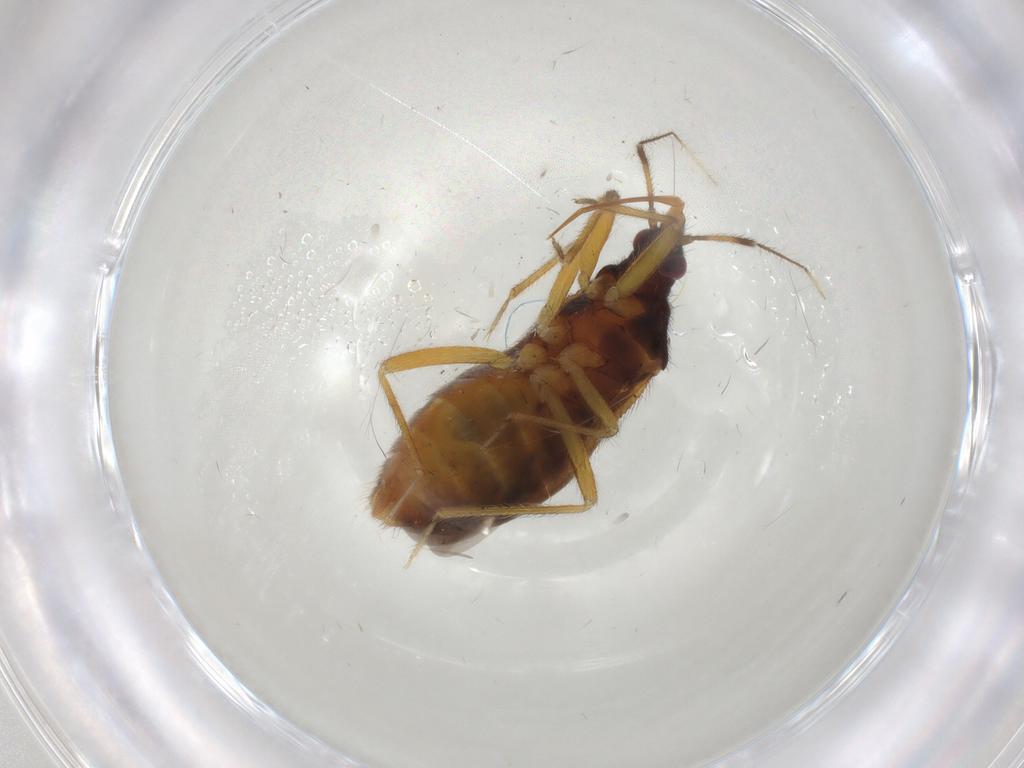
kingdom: Animalia
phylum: Arthropoda
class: Insecta
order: Hemiptera
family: Anthocoridae
